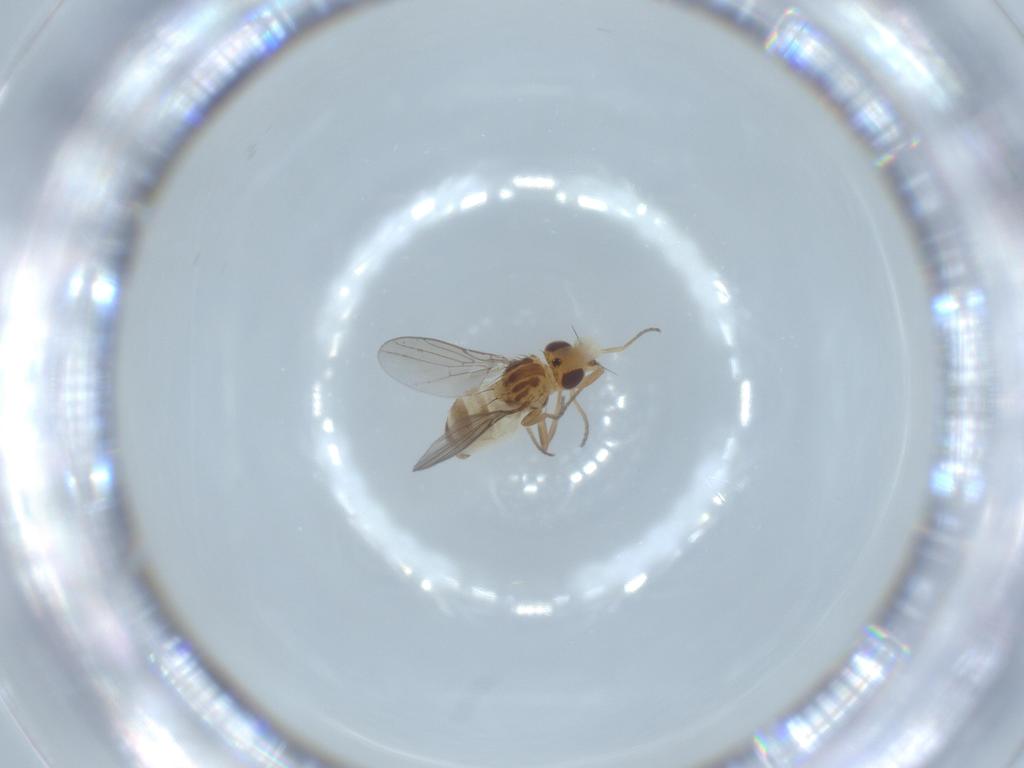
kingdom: Animalia
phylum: Arthropoda
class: Insecta
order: Diptera
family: Chloropidae
